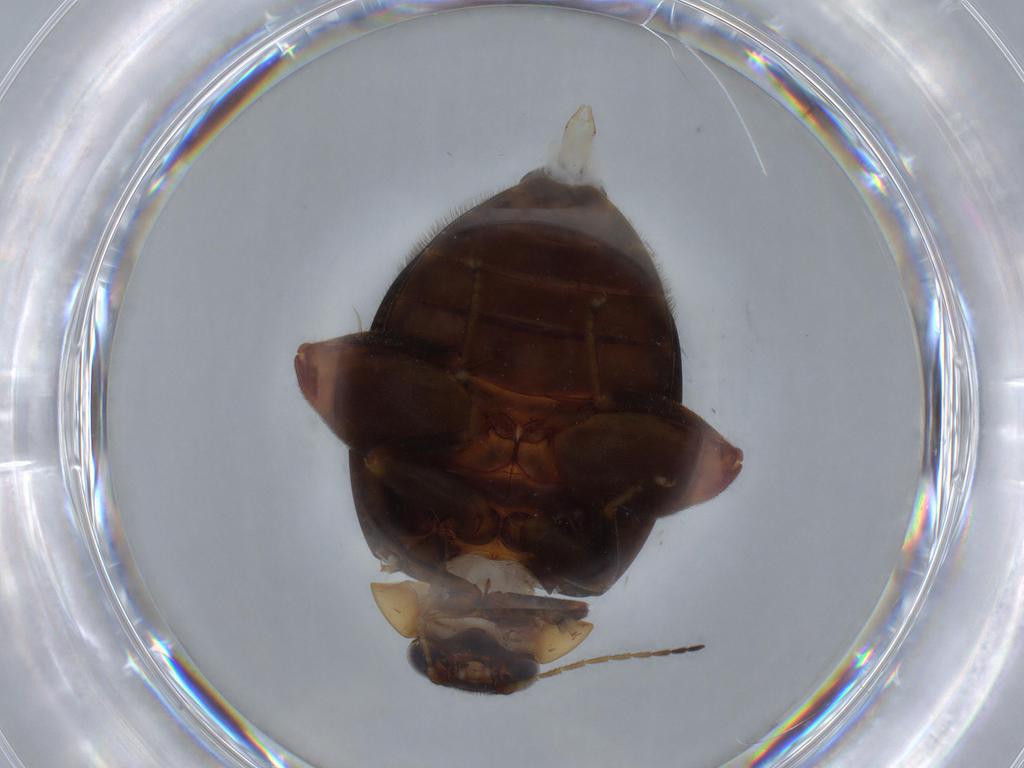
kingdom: Animalia
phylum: Arthropoda
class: Insecta
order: Coleoptera
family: Scirtidae
